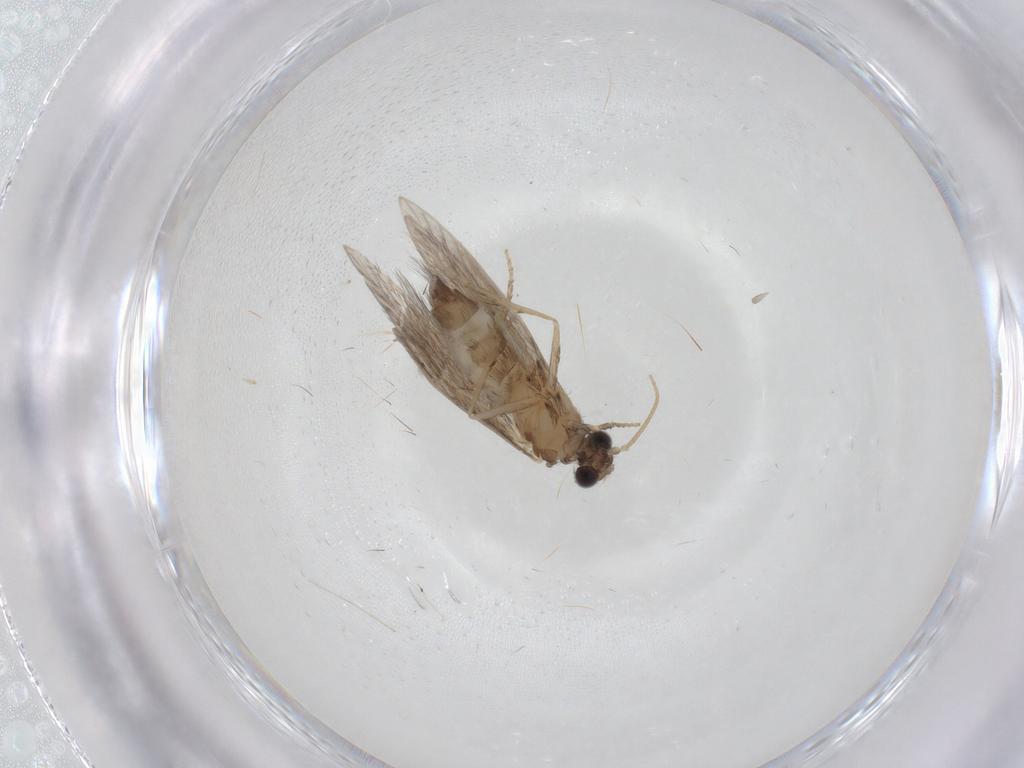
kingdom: Animalia
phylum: Arthropoda
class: Insecta
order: Trichoptera
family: Hydroptilidae
